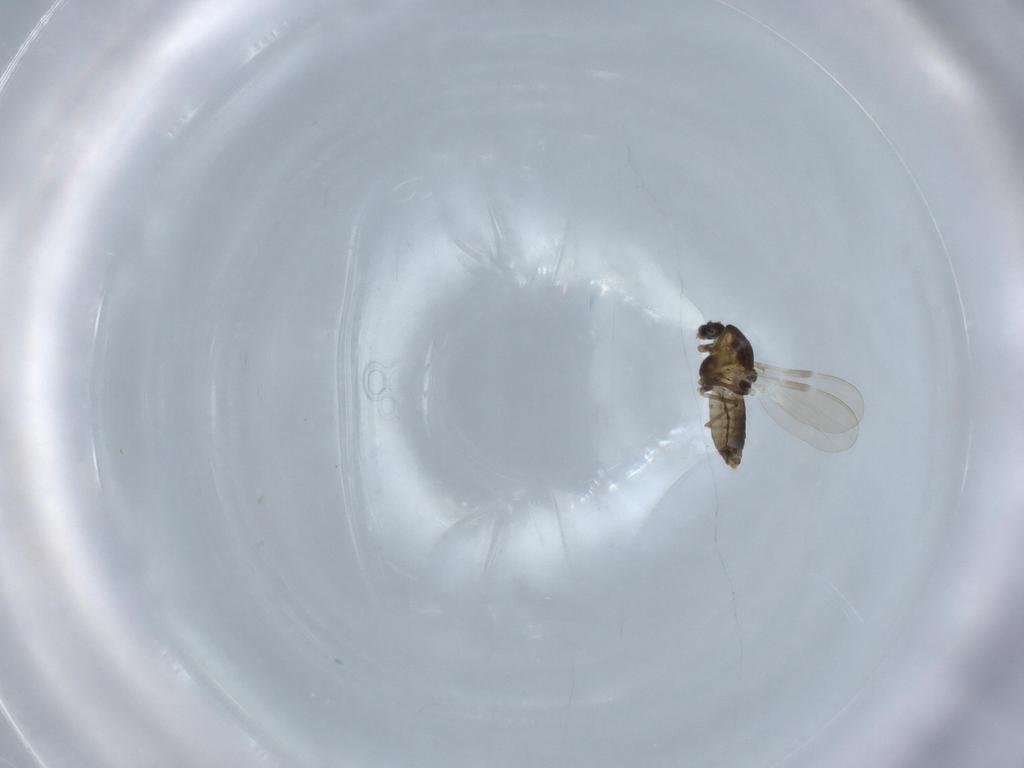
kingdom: Animalia
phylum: Arthropoda
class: Insecta
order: Diptera
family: Chironomidae
